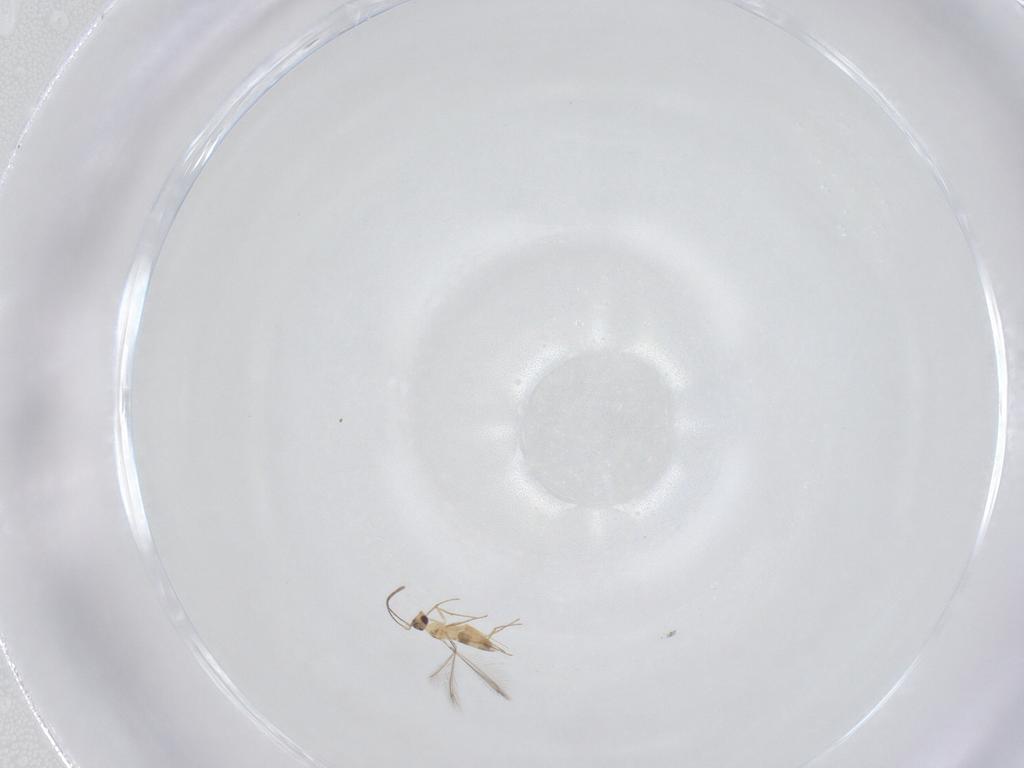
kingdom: Animalia
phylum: Arthropoda
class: Insecta
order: Hymenoptera
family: Mymaridae
